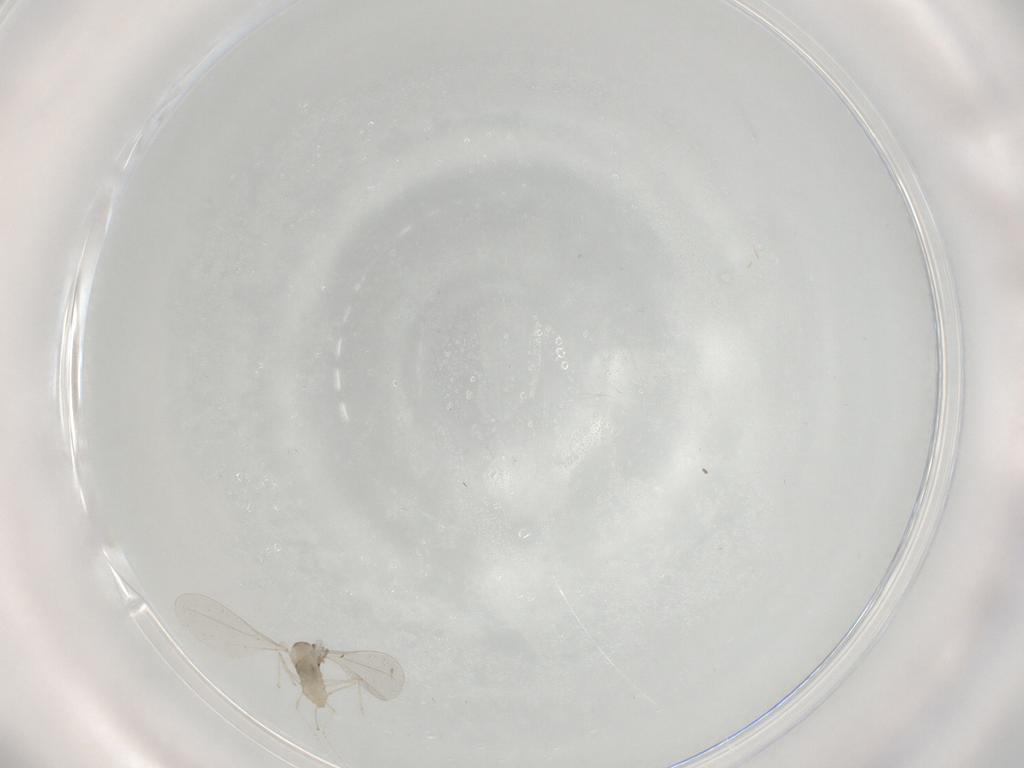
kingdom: Animalia
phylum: Arthropoda
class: Insecta
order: Diptera
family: Cecidomyiidae
